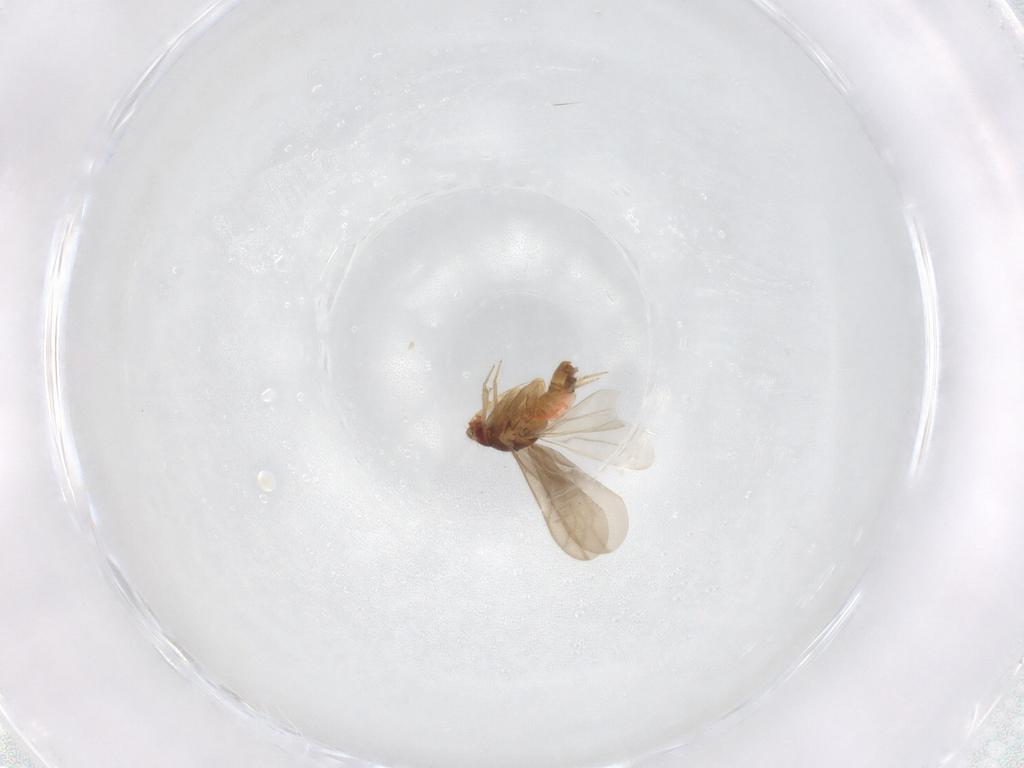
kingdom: Animalia
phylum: Arthropoda
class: Insecta
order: Hemiptera
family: Ceratocombidae
